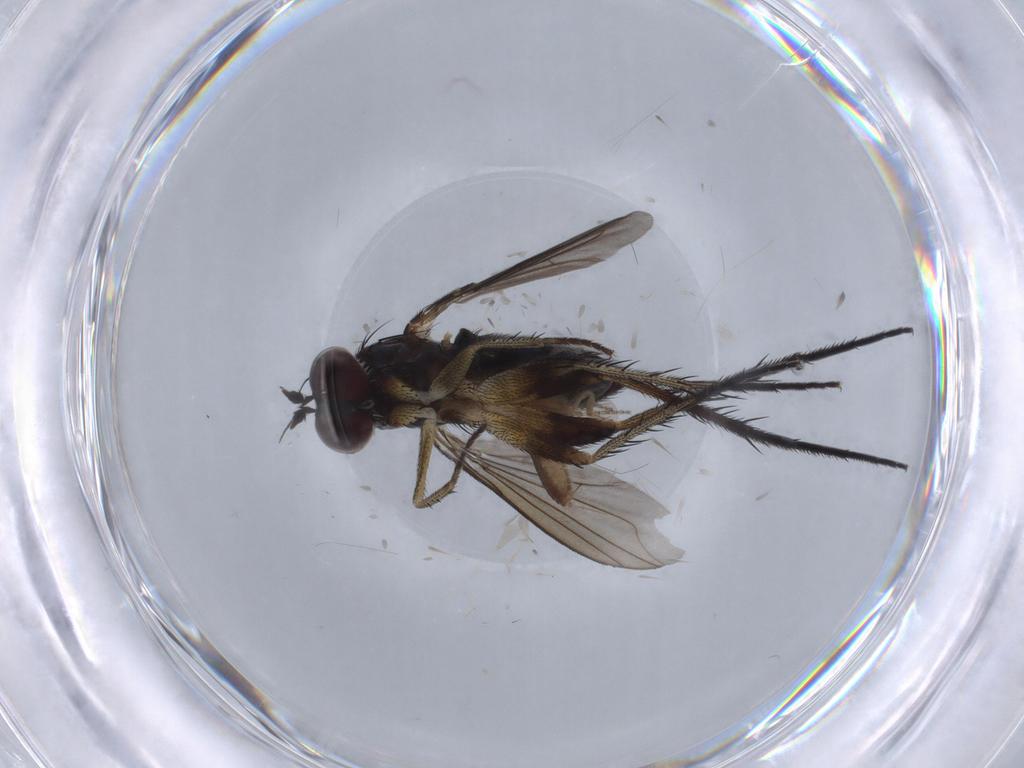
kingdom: Animalia
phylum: Arthropoda
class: Insecta
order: Diptera
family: Dolichopodidae
